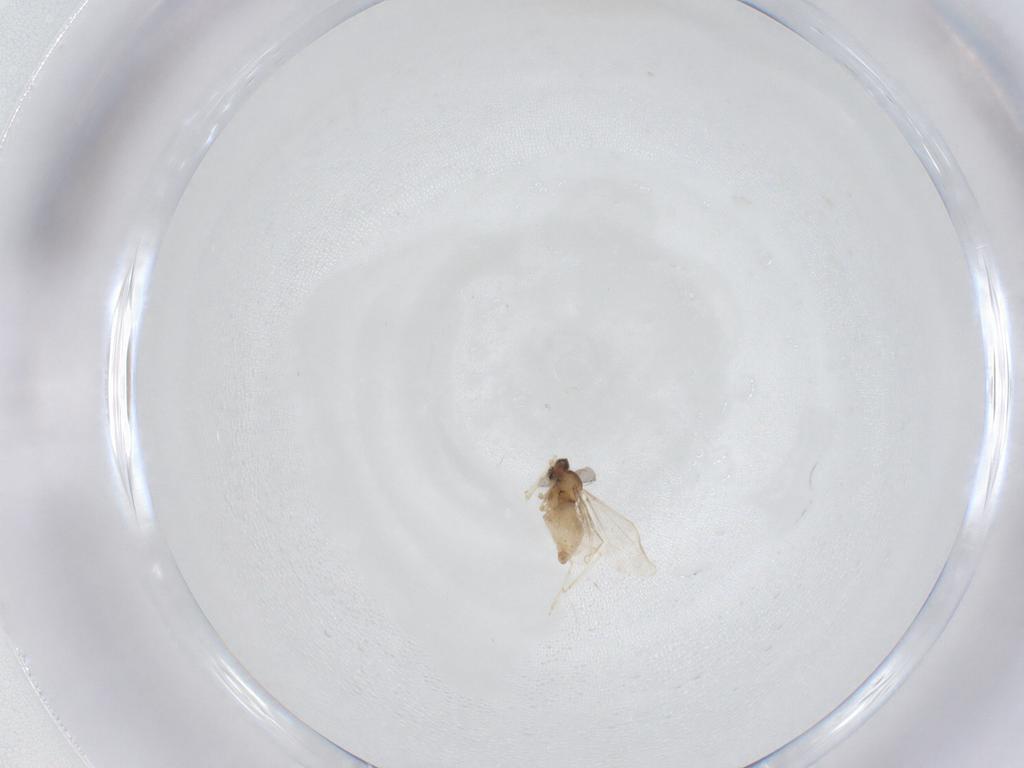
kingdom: Animalia
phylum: Arthropoda
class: Insecta
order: Diptera
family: Cecidomyiidae
